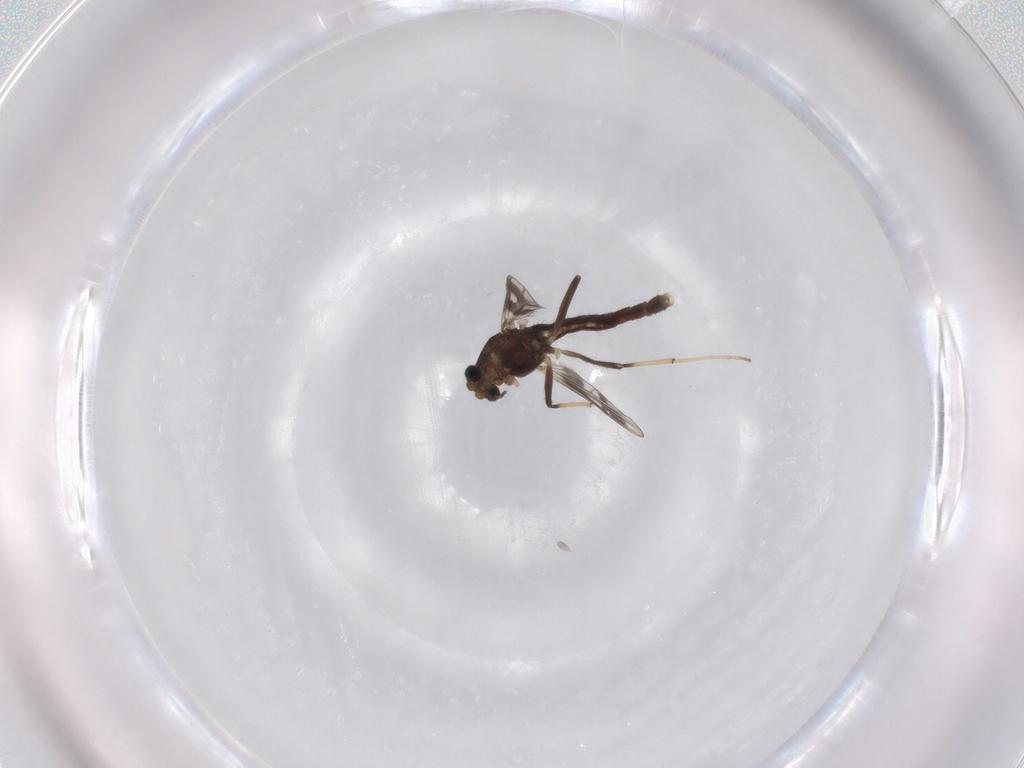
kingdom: Animalia
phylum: Arthropoda
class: Insecta
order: Diptera
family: Chironomidae
